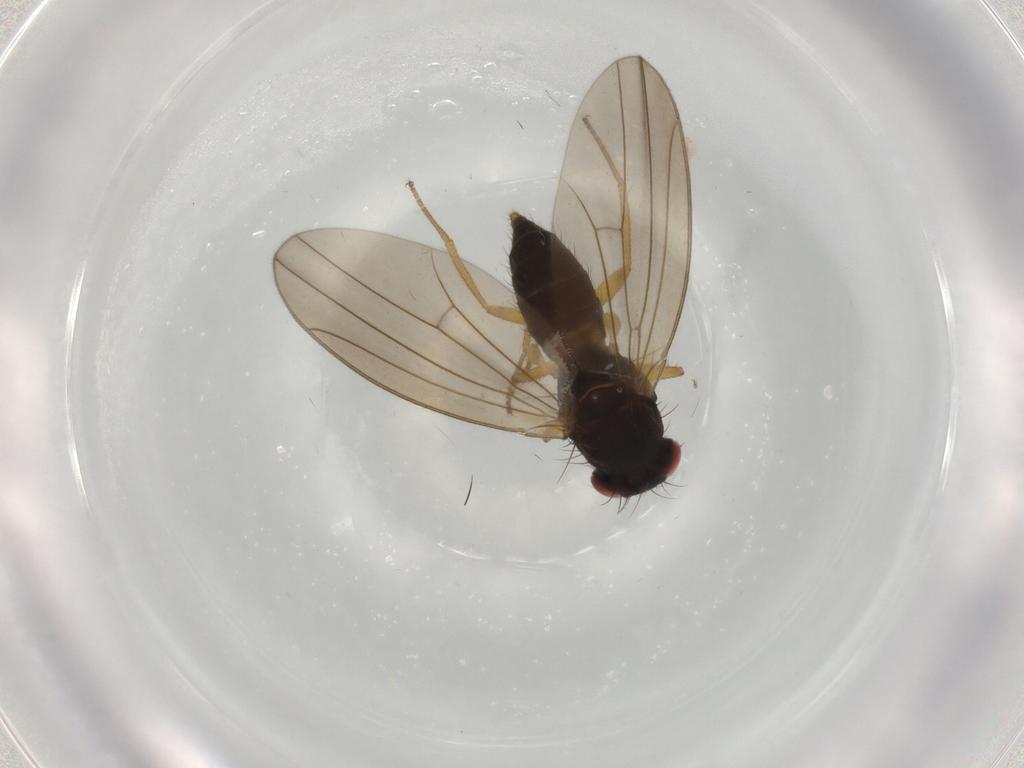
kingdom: Animalia
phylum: Arthropoda
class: Insecta
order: Diptera
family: Drosophilidae
